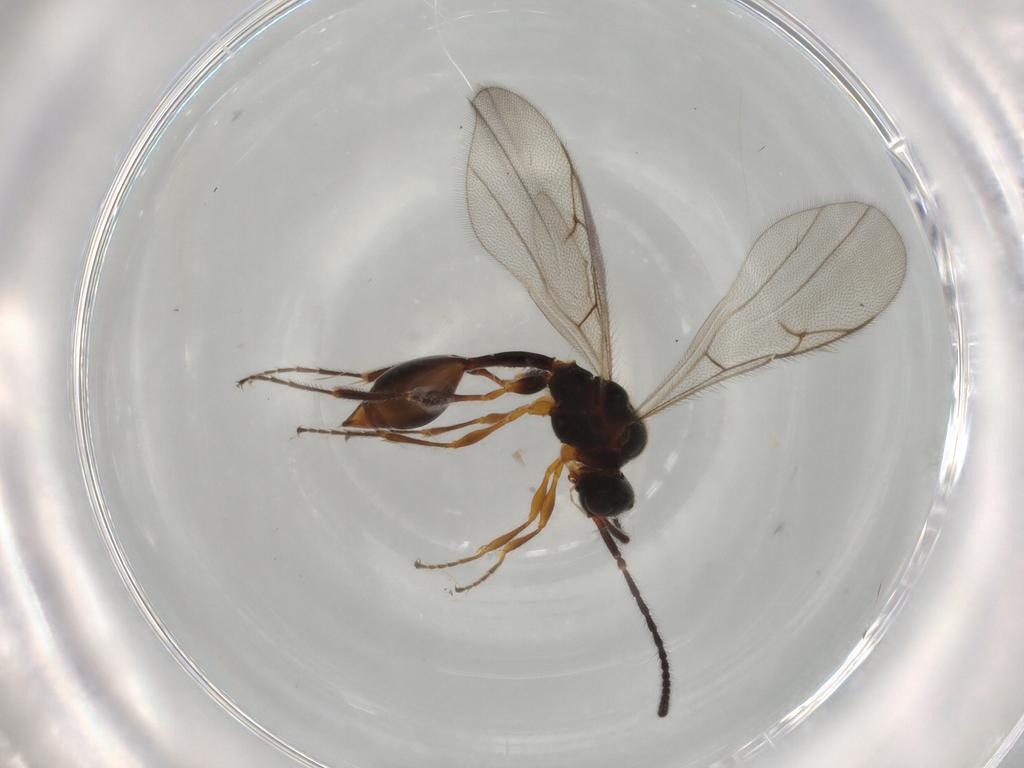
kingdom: Animalia
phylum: Arthropoda
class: Insecta
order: Hymenoptera
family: Diapriidae
